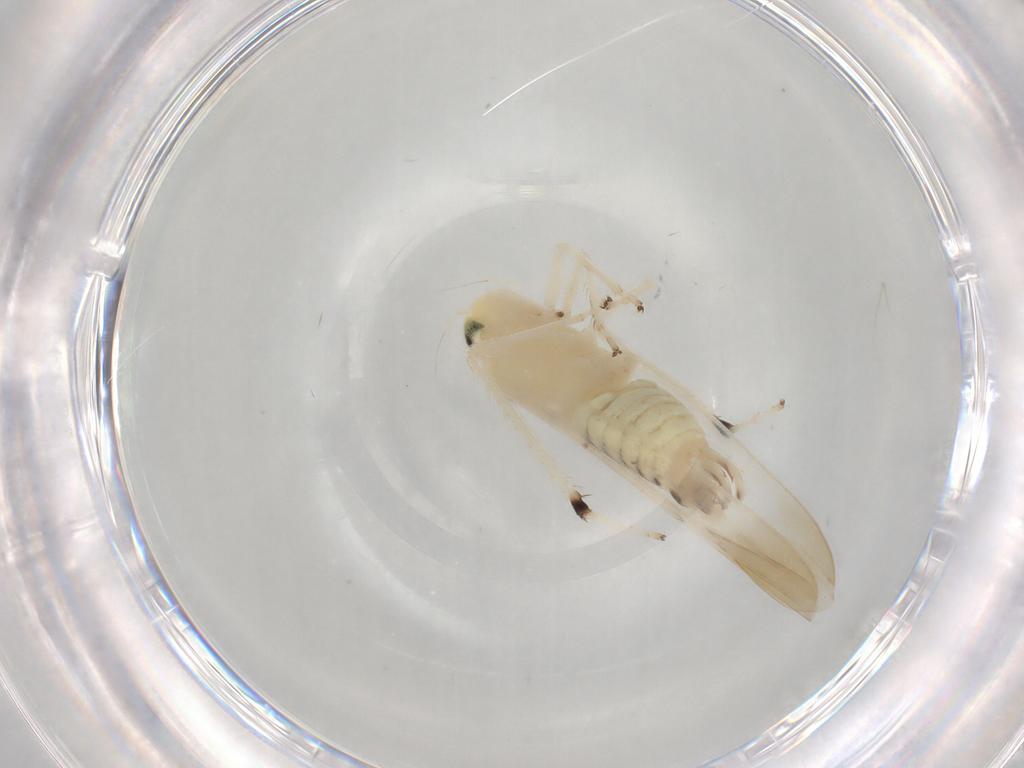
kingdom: Animalia
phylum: Arthropoda
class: Insecta
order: Hemiptera
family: Cicadellidae
